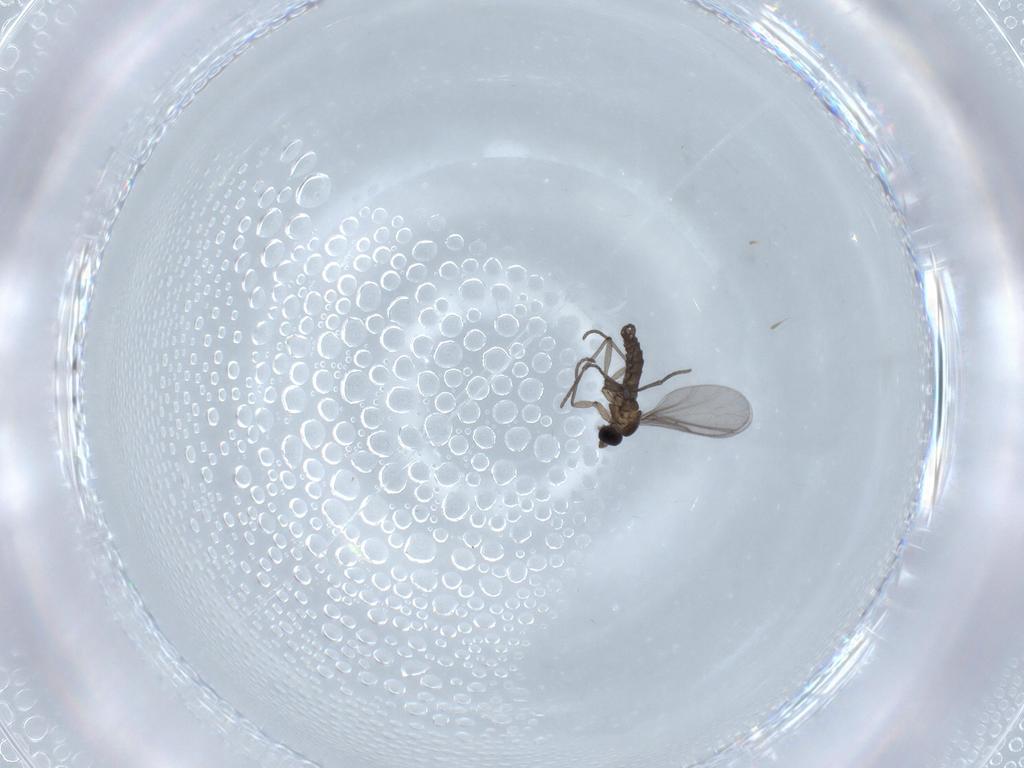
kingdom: Animalia
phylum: Arthropoda
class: Insecta
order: Diptera
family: Sciaridae
